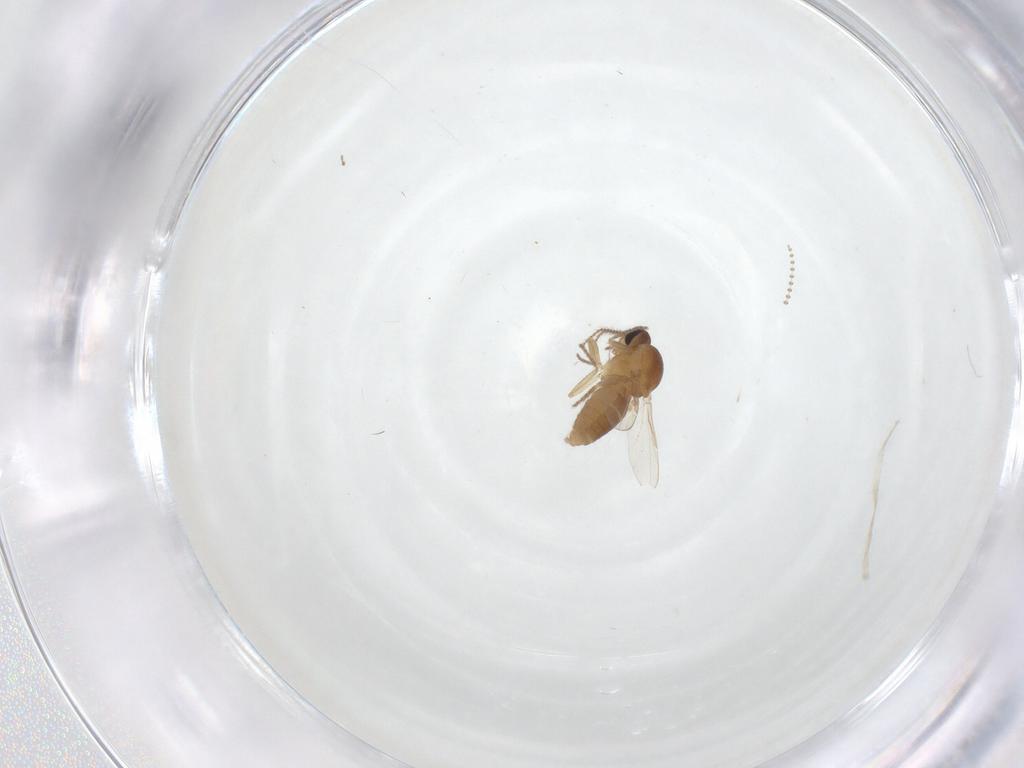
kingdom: Animalia
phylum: Arthropoda
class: Insecta
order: Diptera
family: Ceratopogonidae
